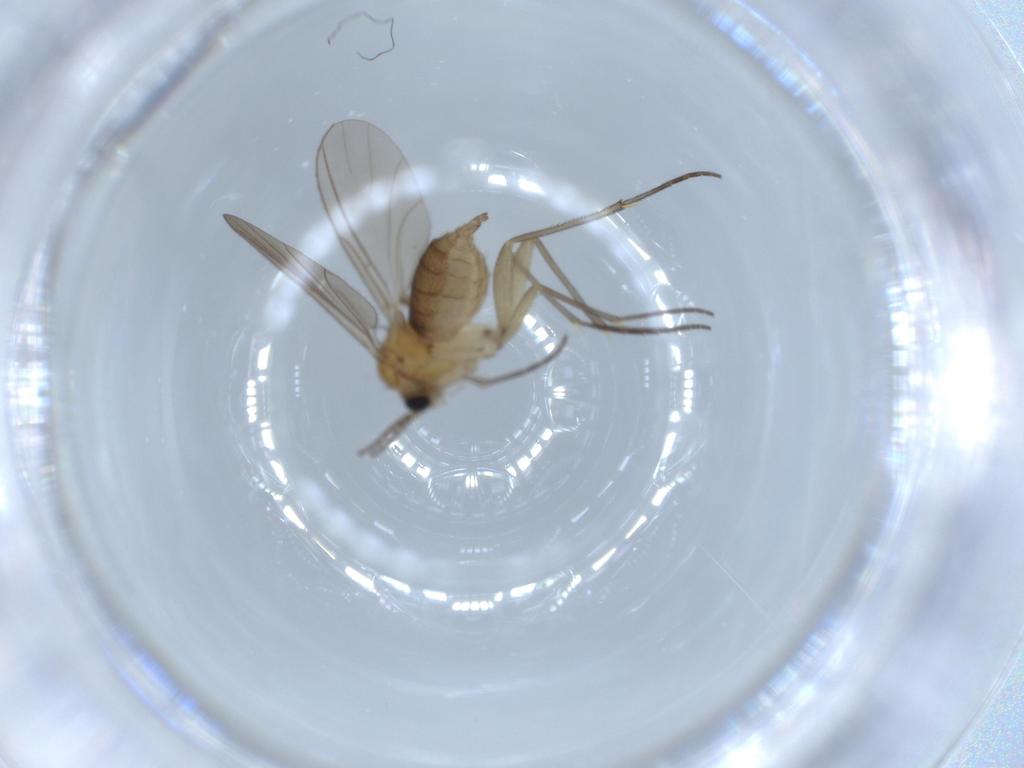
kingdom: Animalia
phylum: Arthropoda
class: Insecta
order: Diptera
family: Sciaridae
